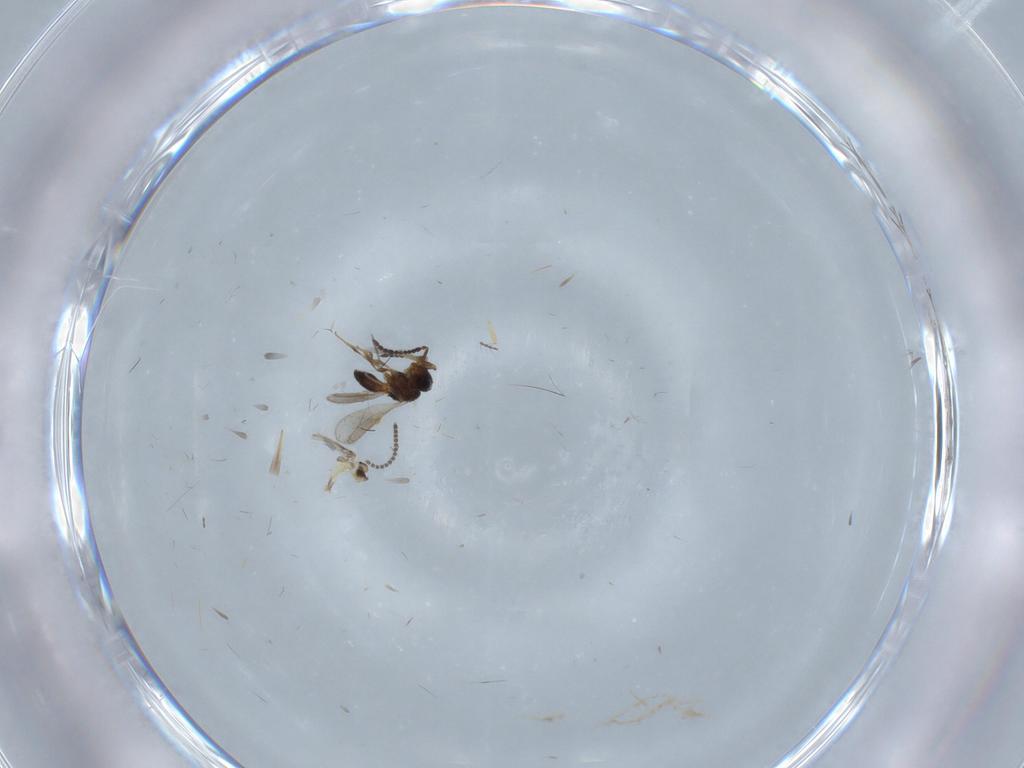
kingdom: Animalia
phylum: Arthropoda
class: Insecta
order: Hymenoptera
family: Scelionidae
